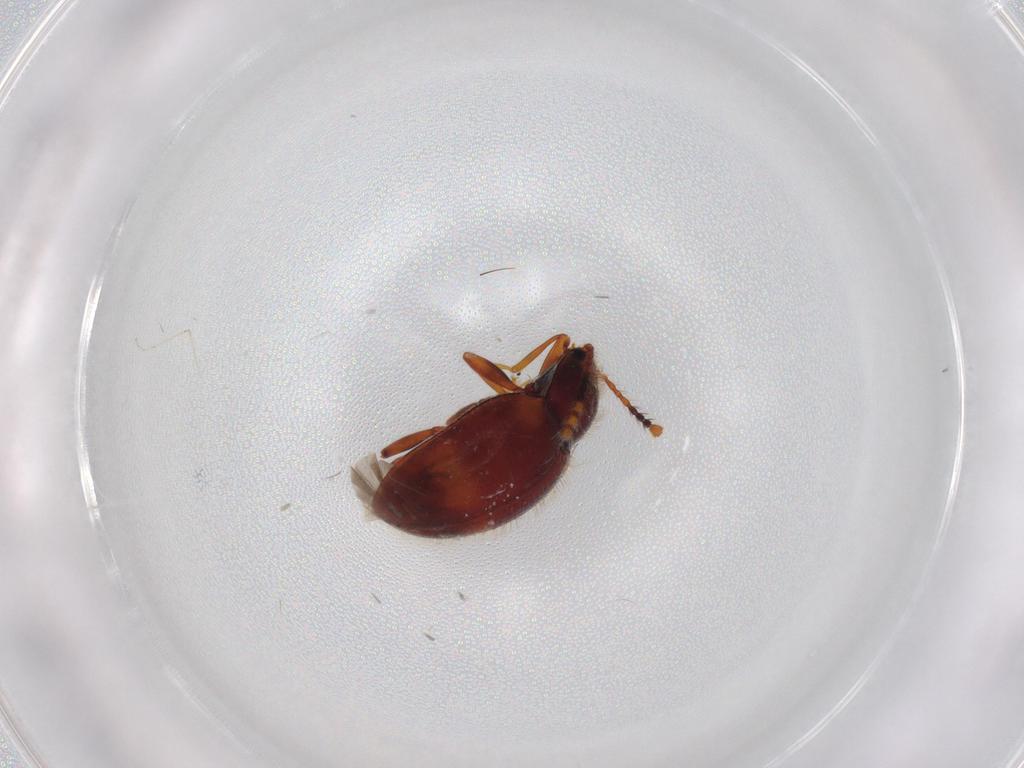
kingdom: Animalia
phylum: Arthropoda
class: Insecta
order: Coleoptera
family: Erotylidae
